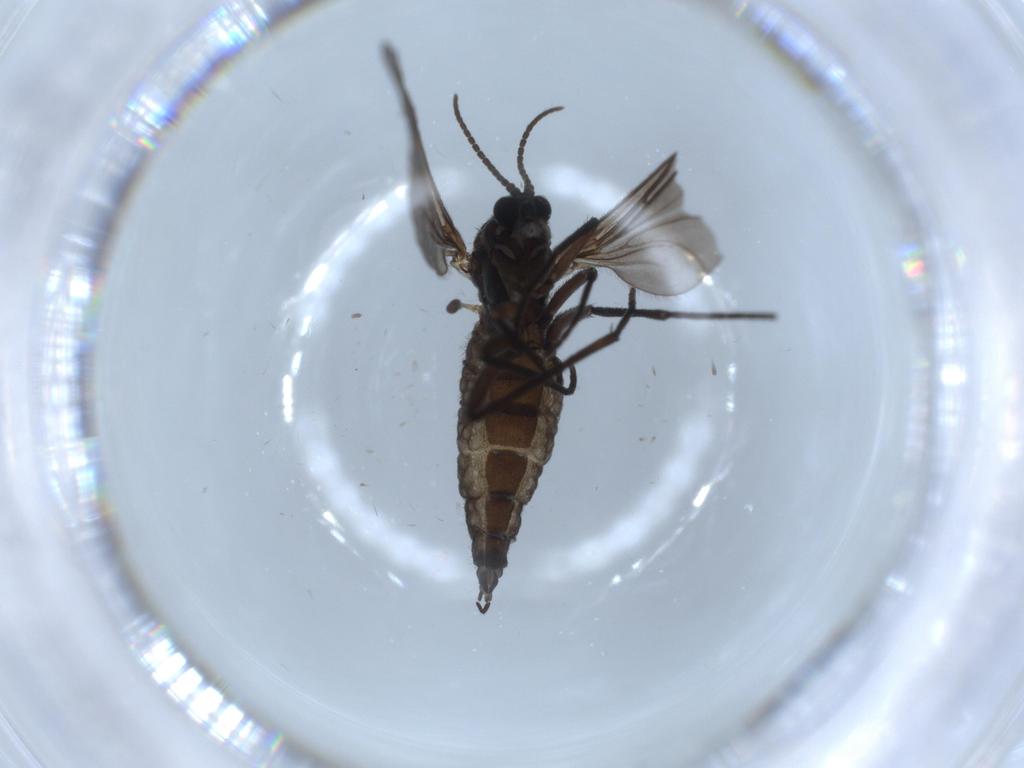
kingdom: Animalia
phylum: Arthropoda
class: Insecta
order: Diptera
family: Sciaridae
